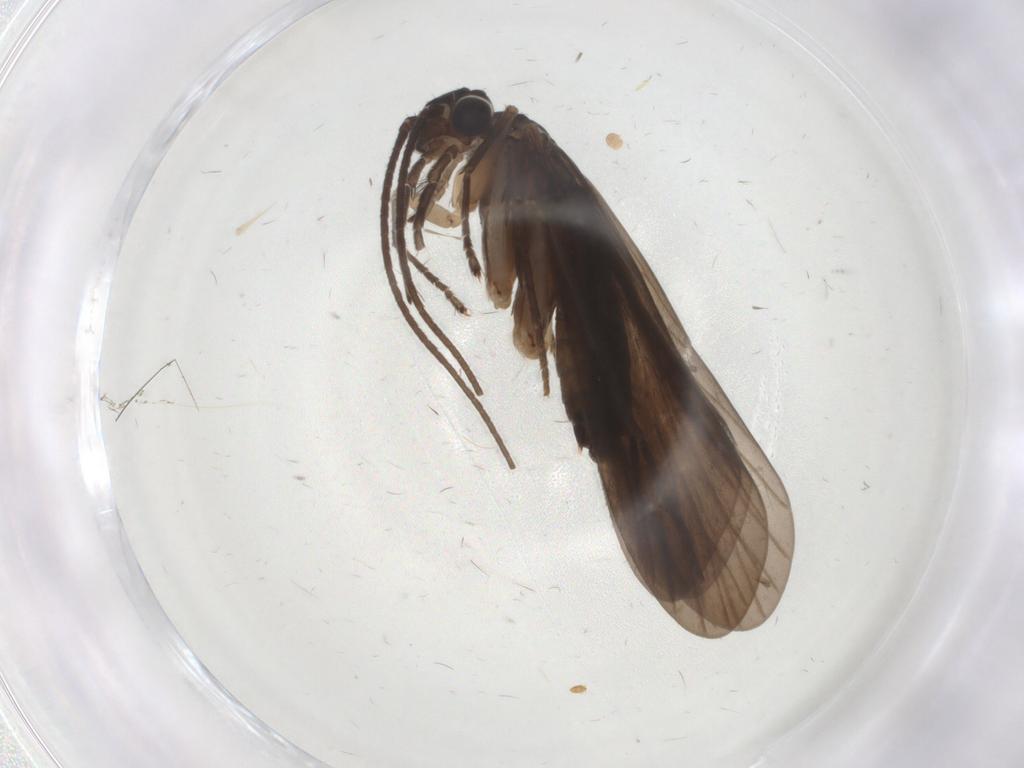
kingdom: Animalia
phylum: Arthropoda
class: Insecta
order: Trichoptera
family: Philopotamidae
